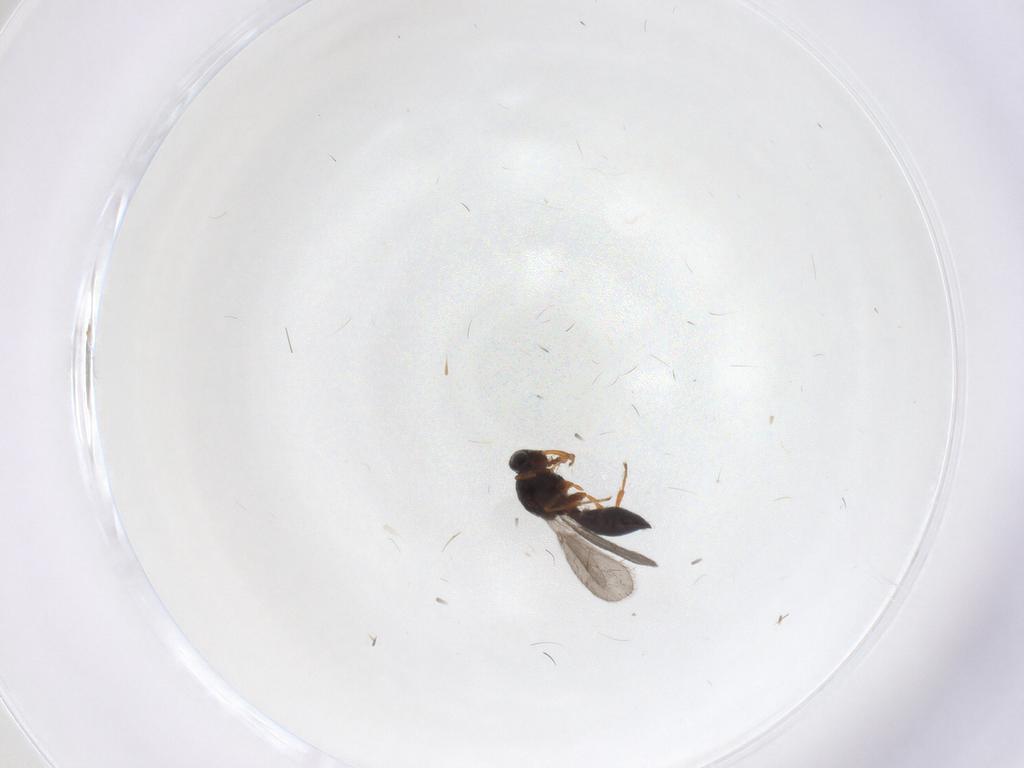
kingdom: Animalia
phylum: Arthropoda
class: Insecta
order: Hymenoptera
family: Platygastridae
